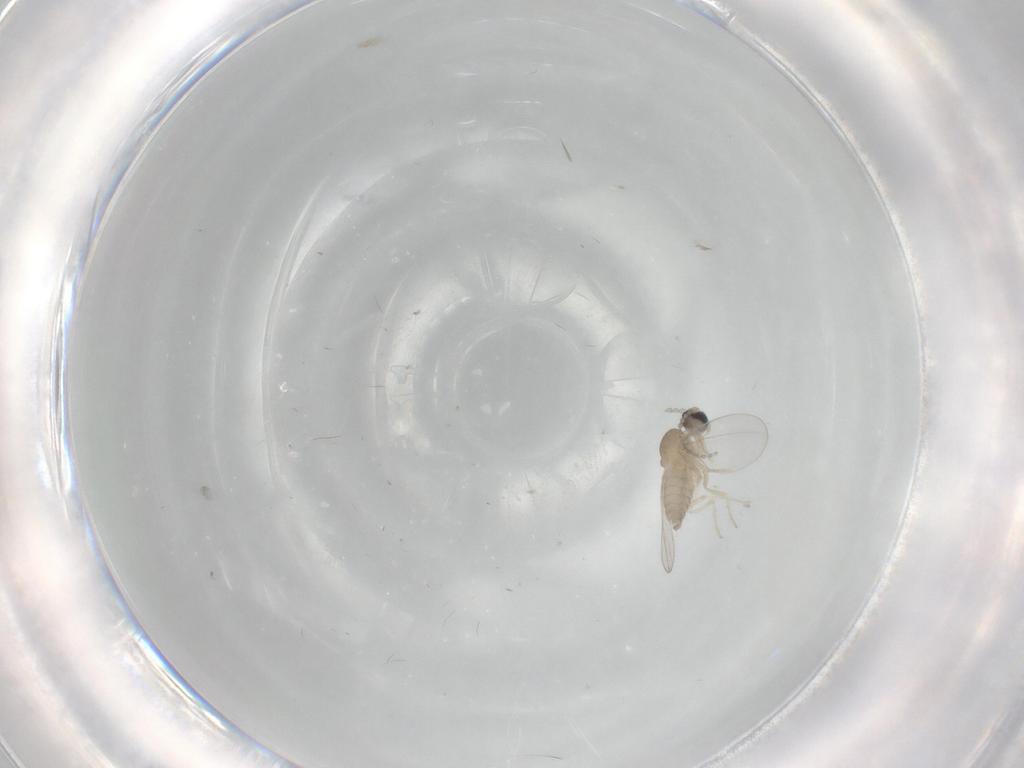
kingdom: Animalia
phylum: Arthropoda
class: Insecta
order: Diptera
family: Cecidomyiidae
